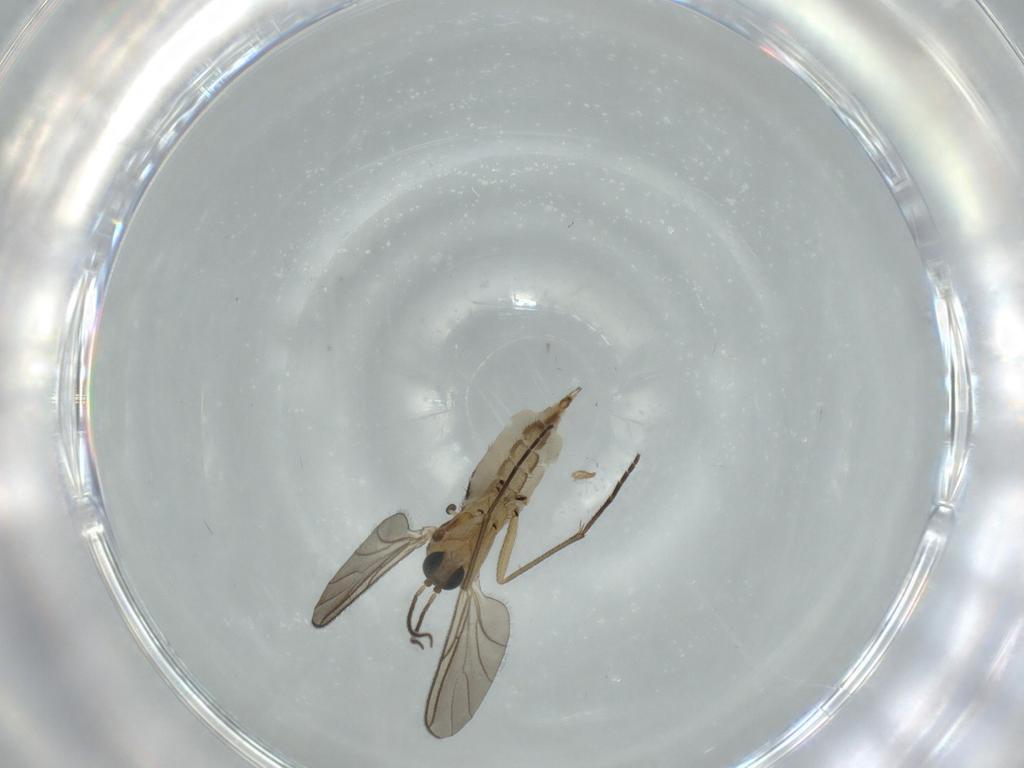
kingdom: Animalia
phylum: Arthropoda
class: Insecta
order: Diptera
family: Sciaridae
